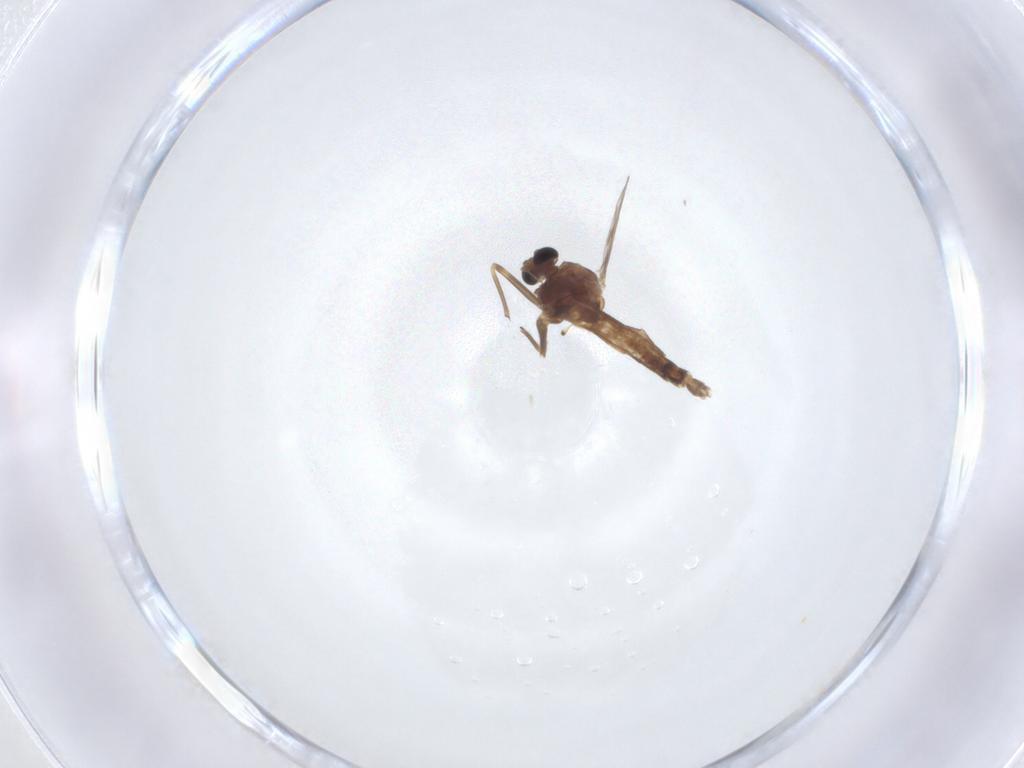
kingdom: Animalia
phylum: Arthropoda
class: Insecta
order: Diptera
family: Chironomidae
